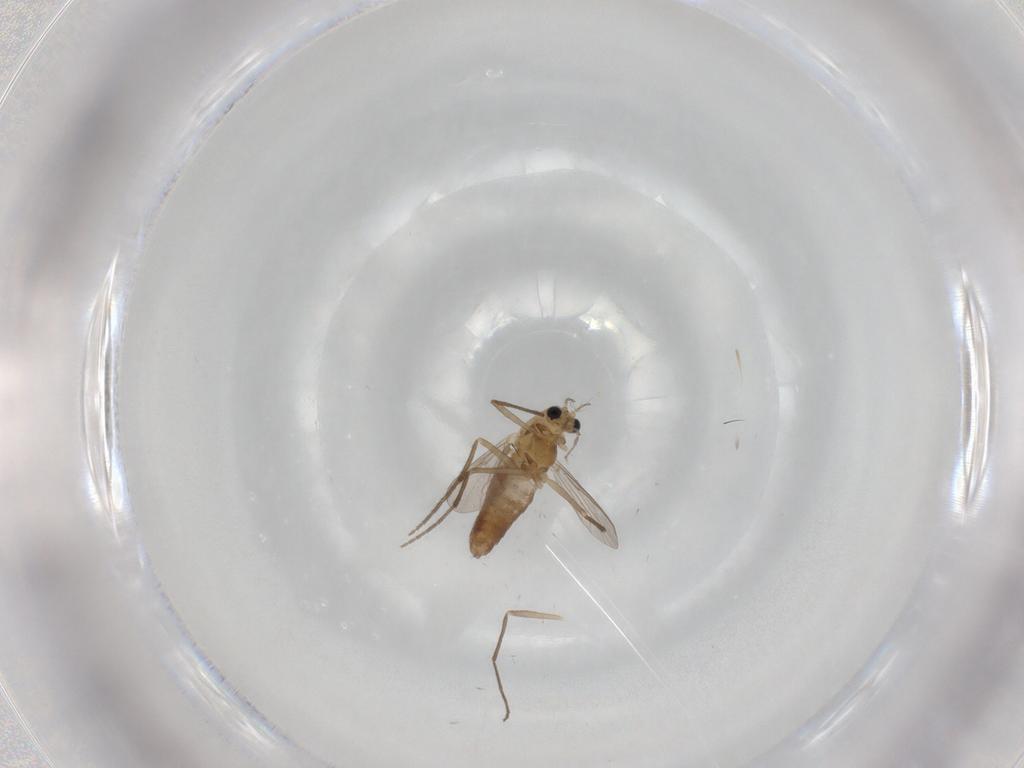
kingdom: Animalia
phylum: Arthropoda
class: Insecta
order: Diptera
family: Chironomidae
